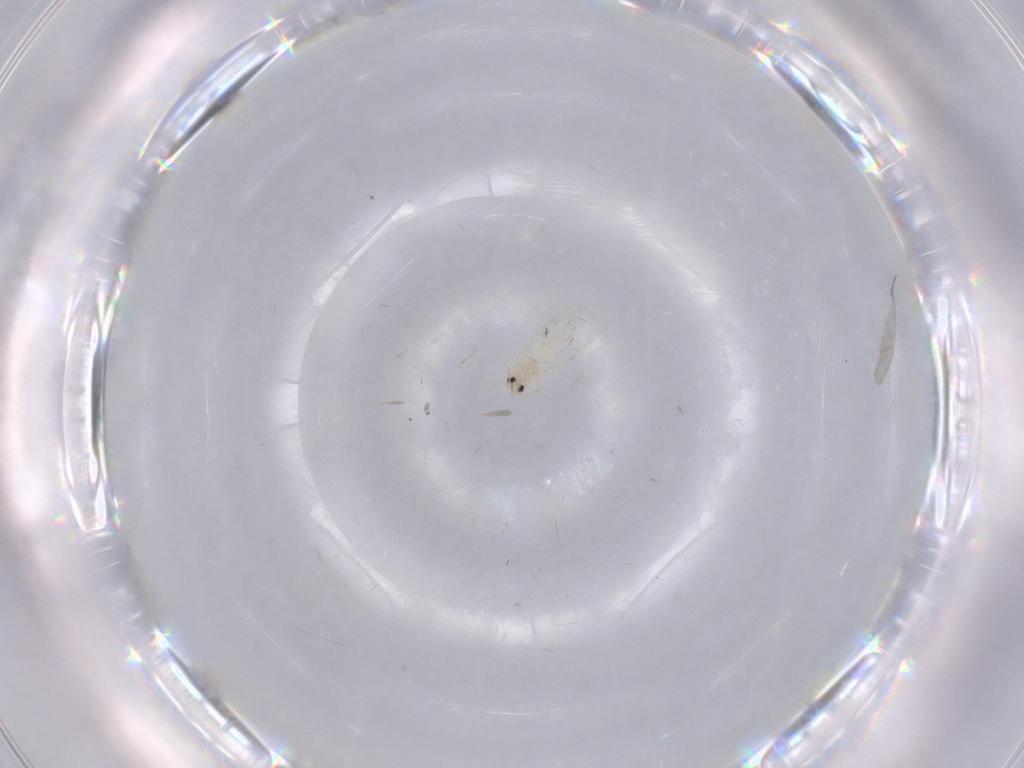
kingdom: Animalia
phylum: Arthropoda
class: Insecta
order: Hemiptera
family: Aleyrodidae
